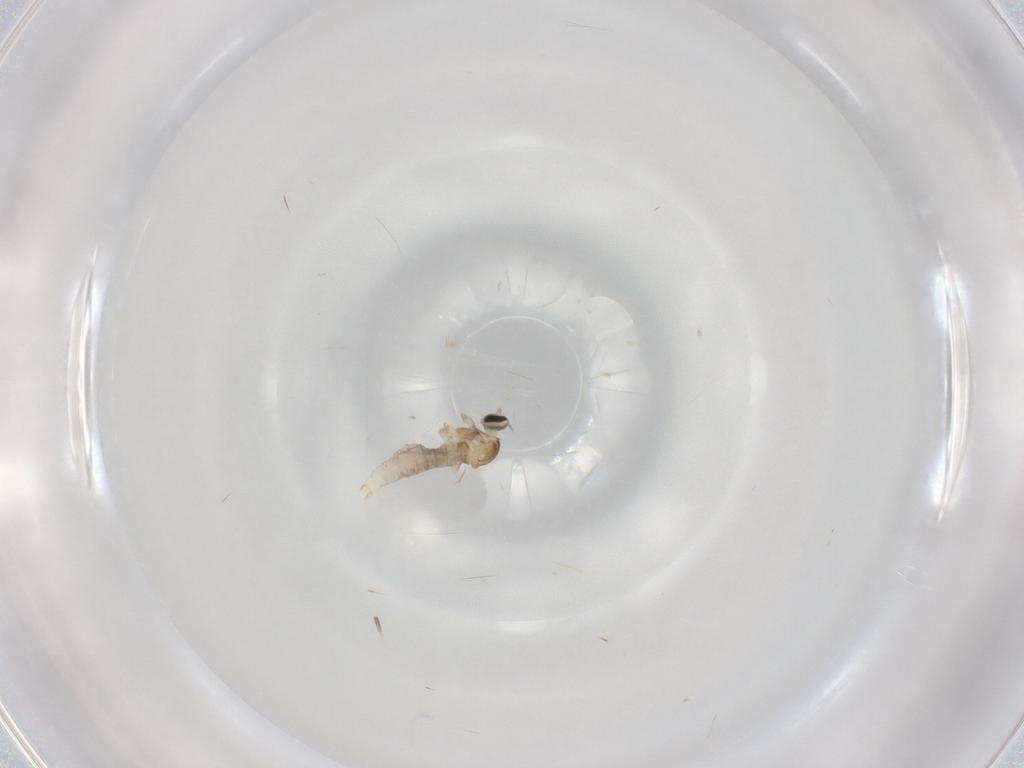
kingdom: Animalia
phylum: Arthropoda
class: Insecta
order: Diptera
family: Cecidomyiidae
